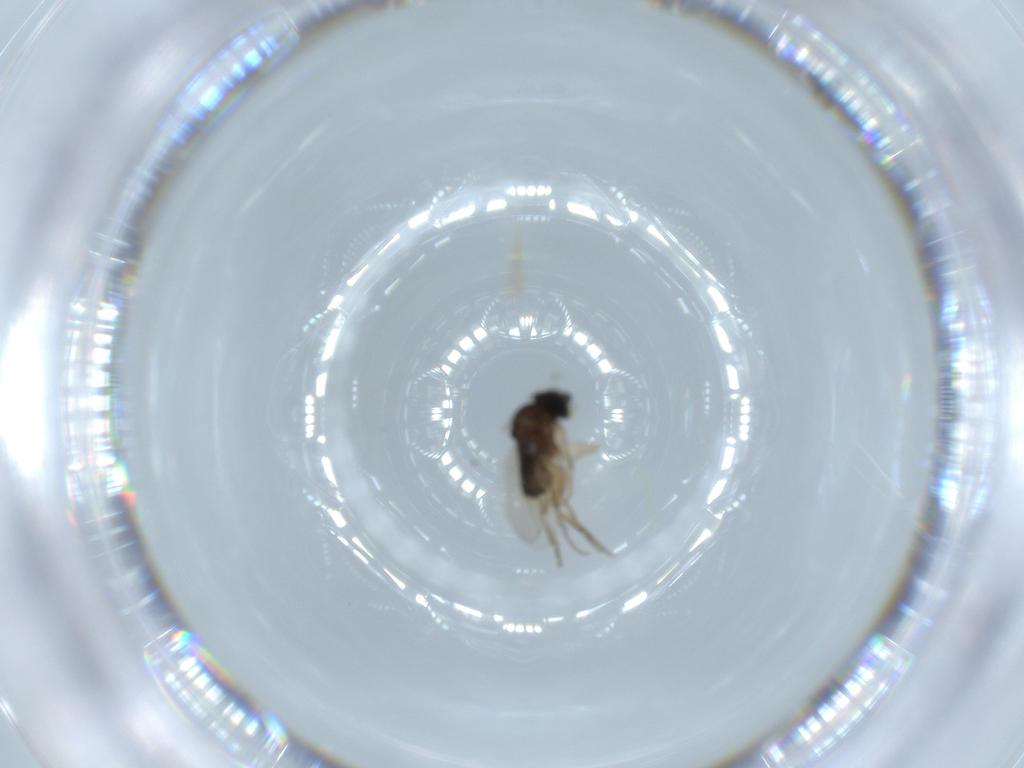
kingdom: Animalia
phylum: Arthropoda
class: Insecta
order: Diptera
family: Phoridae
